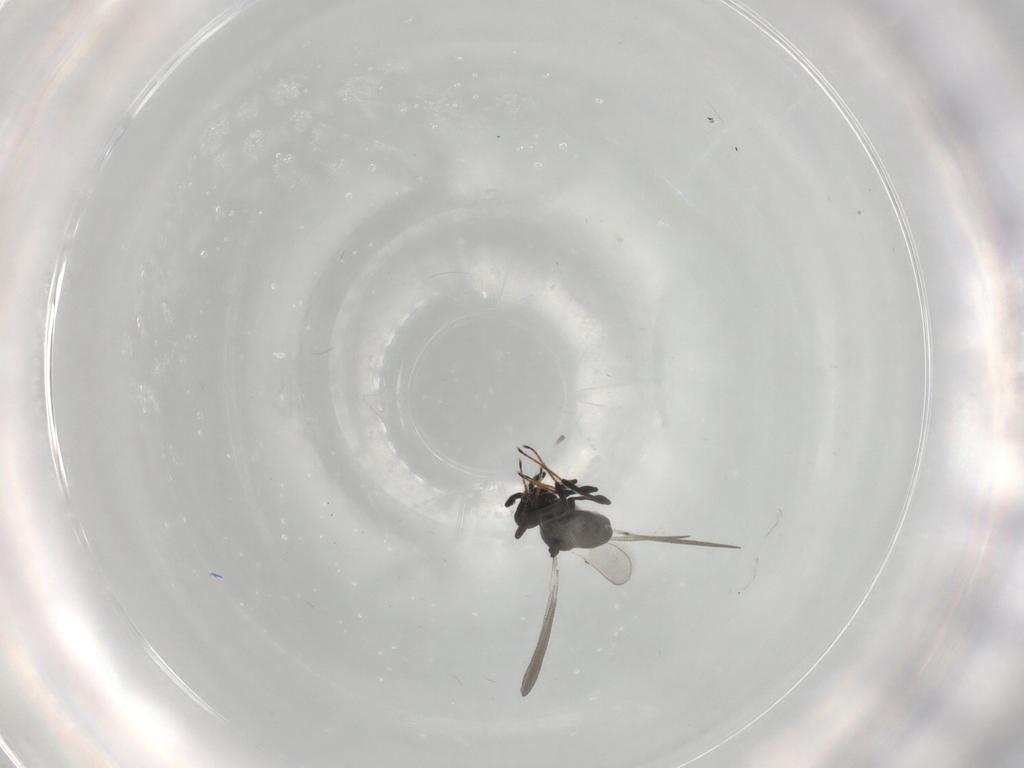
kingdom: Animalia
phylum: Arthropoda
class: Insecta
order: Hymenoptera
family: Platygastridae
